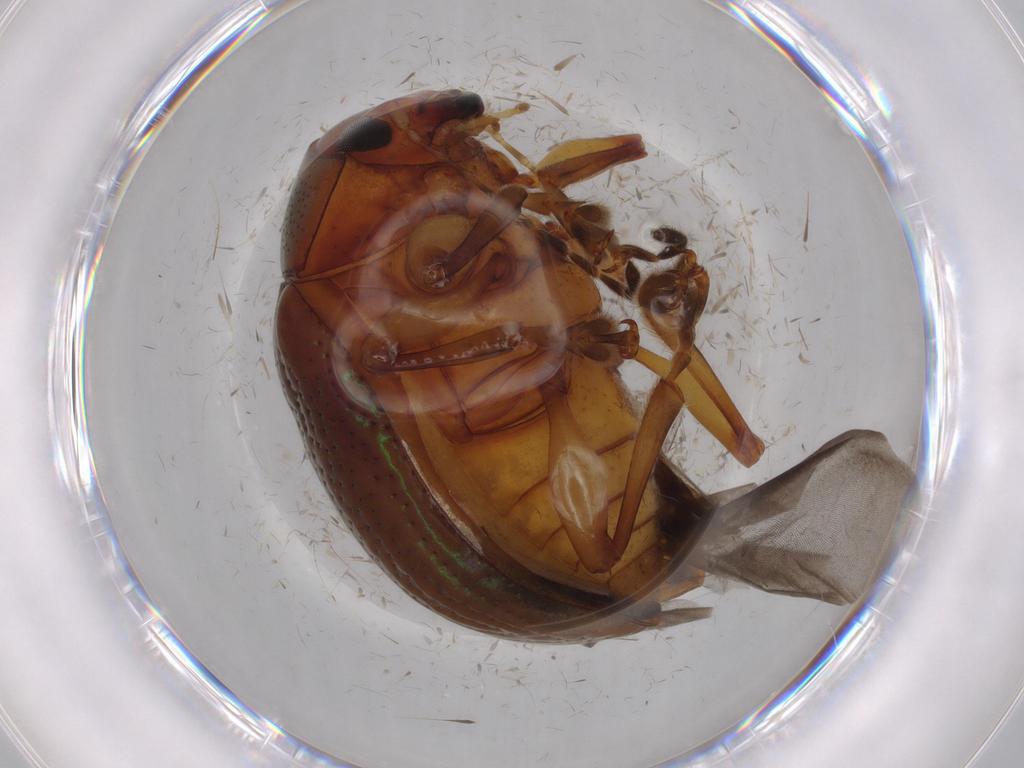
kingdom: Animalia
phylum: Arthropoda
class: Insecta
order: Coleoptera
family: Chrysomelidae
